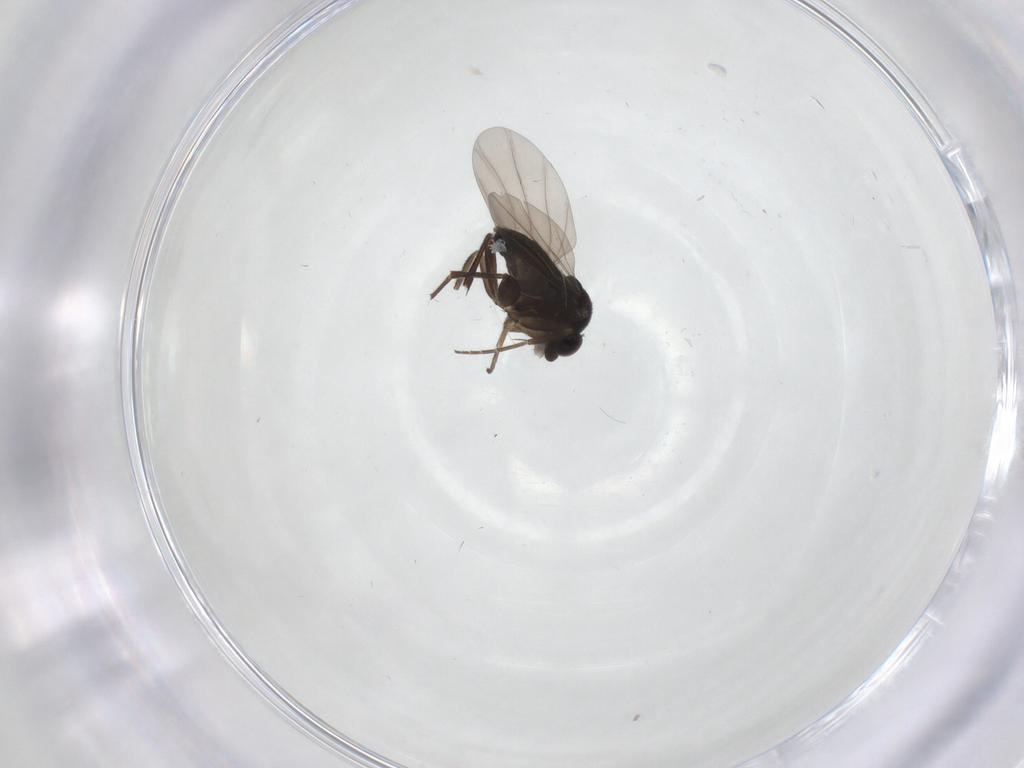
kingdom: Animalia
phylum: Arthropoda
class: Insecta
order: Diptera
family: Phoridae
